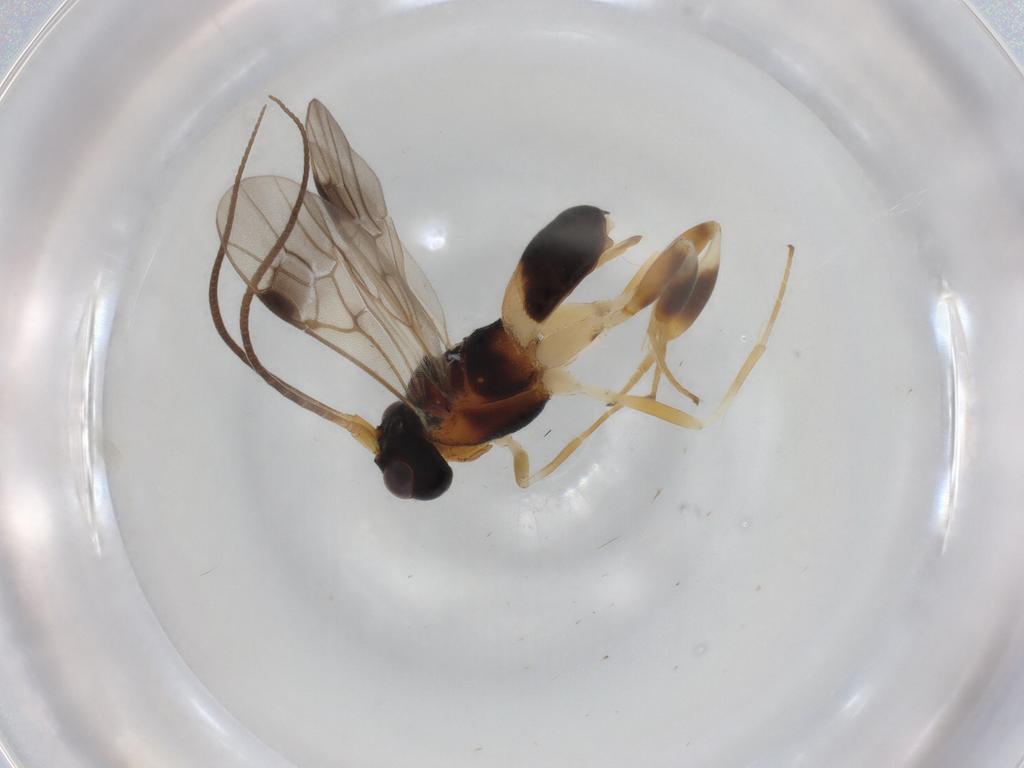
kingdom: Animalia
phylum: Arthropoda
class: Insecta
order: Hymenoptera
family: Braconidae
